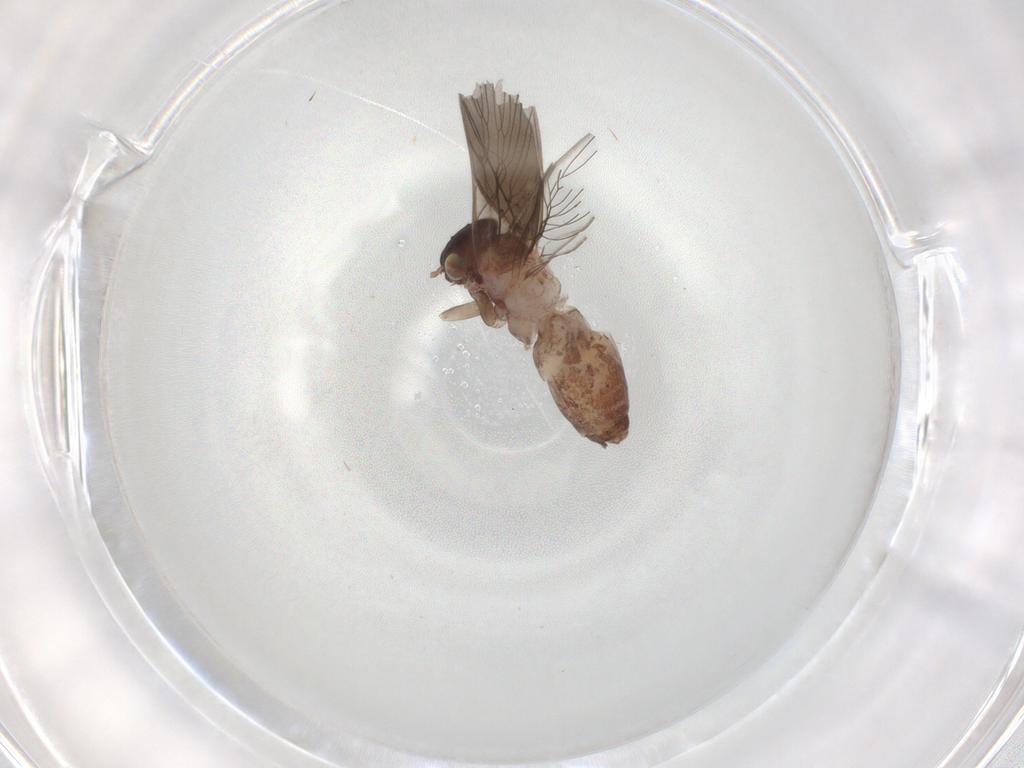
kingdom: Animalia
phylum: Arthropoda
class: Insecta
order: Psocodea
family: Lepidopsocidae
